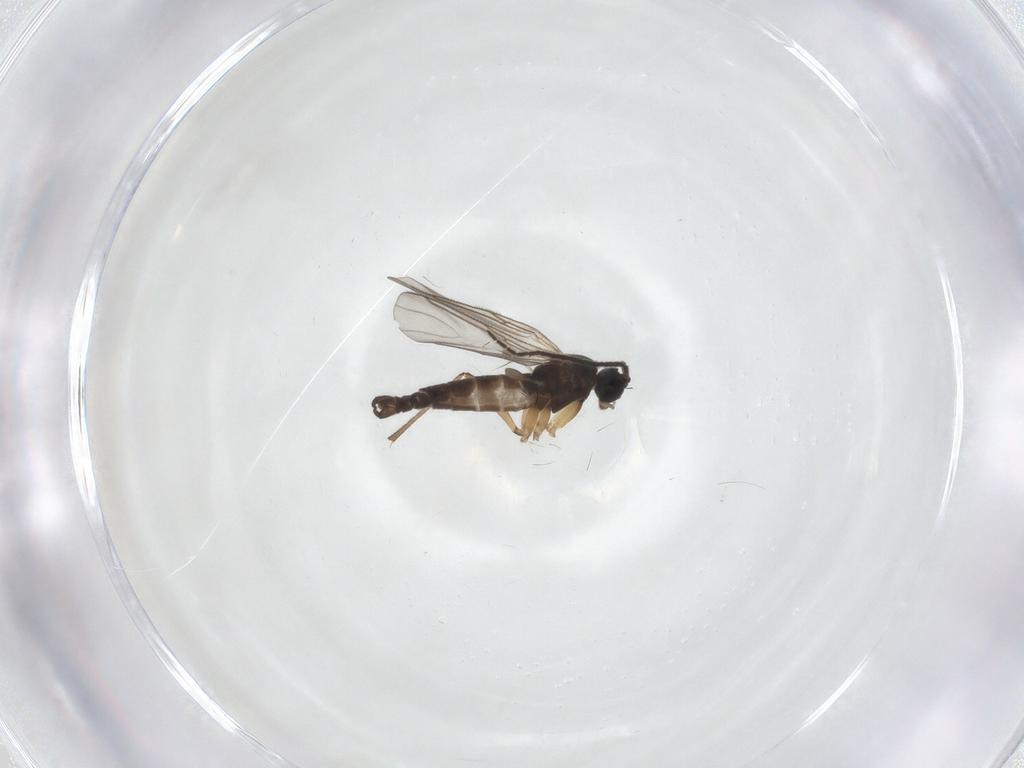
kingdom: Animalia
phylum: Arthropoda
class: Insecta
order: Diptera
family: Sciaridae
